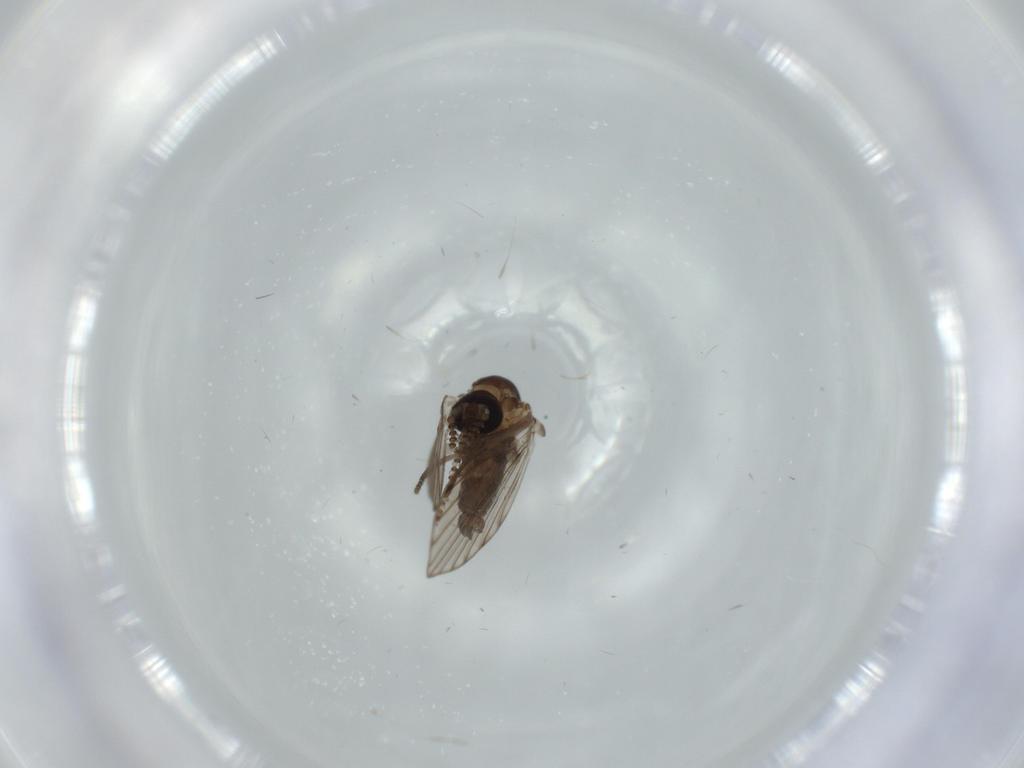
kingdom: Animalia
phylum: Arthropoda
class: Insecta
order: Diptera
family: Psychodidae
